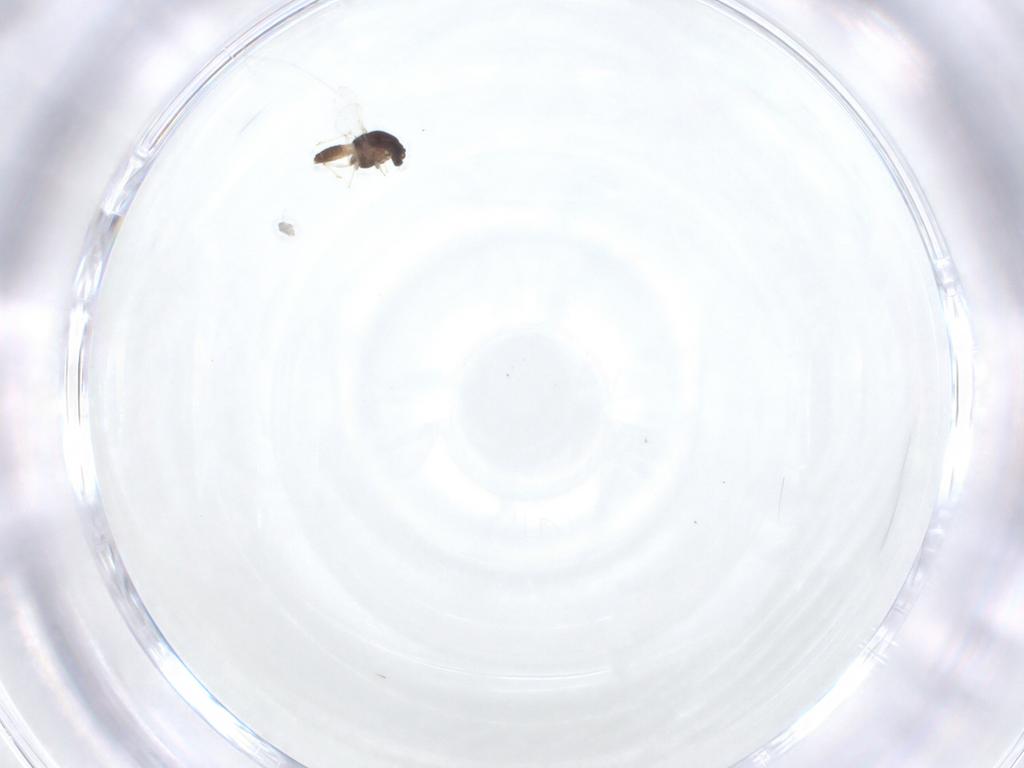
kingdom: Animalia
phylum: Arthropoda
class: Insecta
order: Diptera
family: Chironomidae
